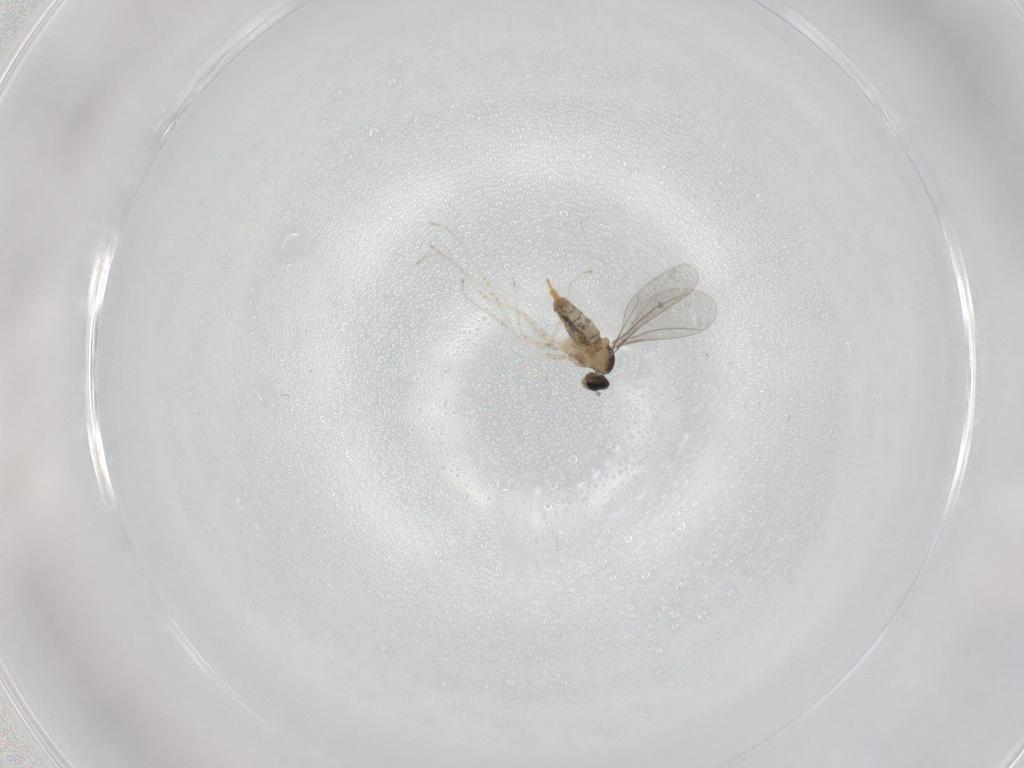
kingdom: Animalia
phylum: Arthropoda
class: Insecta
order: Diptera
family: Cecidomyiidae
